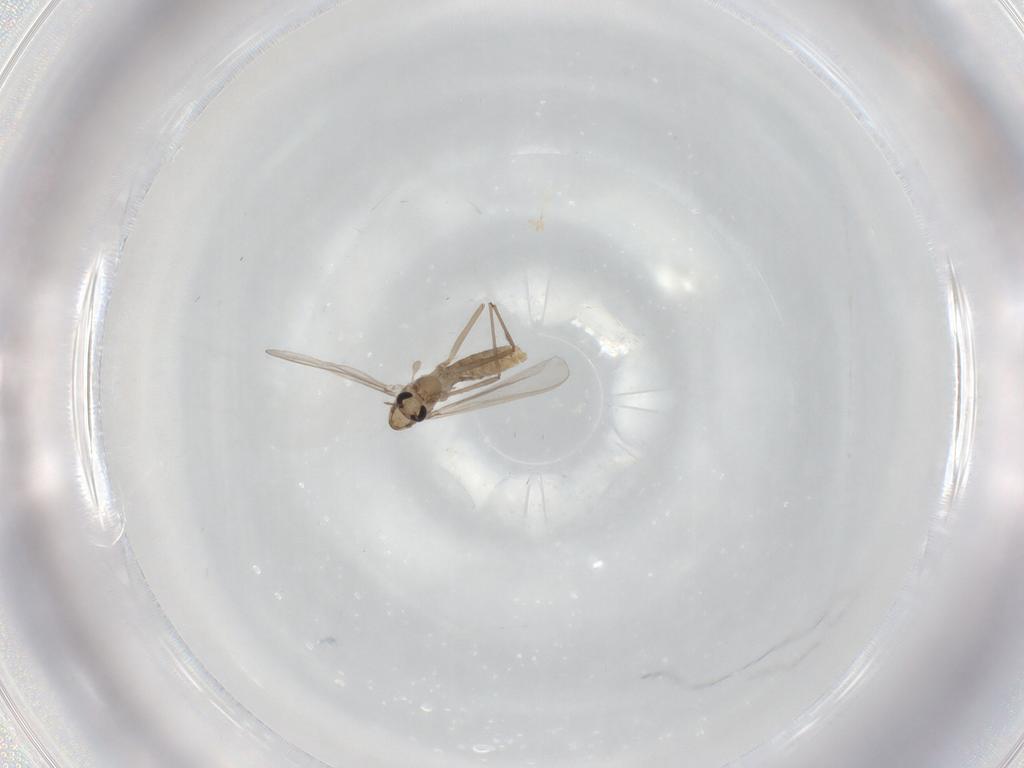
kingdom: Animalia
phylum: Arthropoda
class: Insecta
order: Diptera
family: Chironomidae
